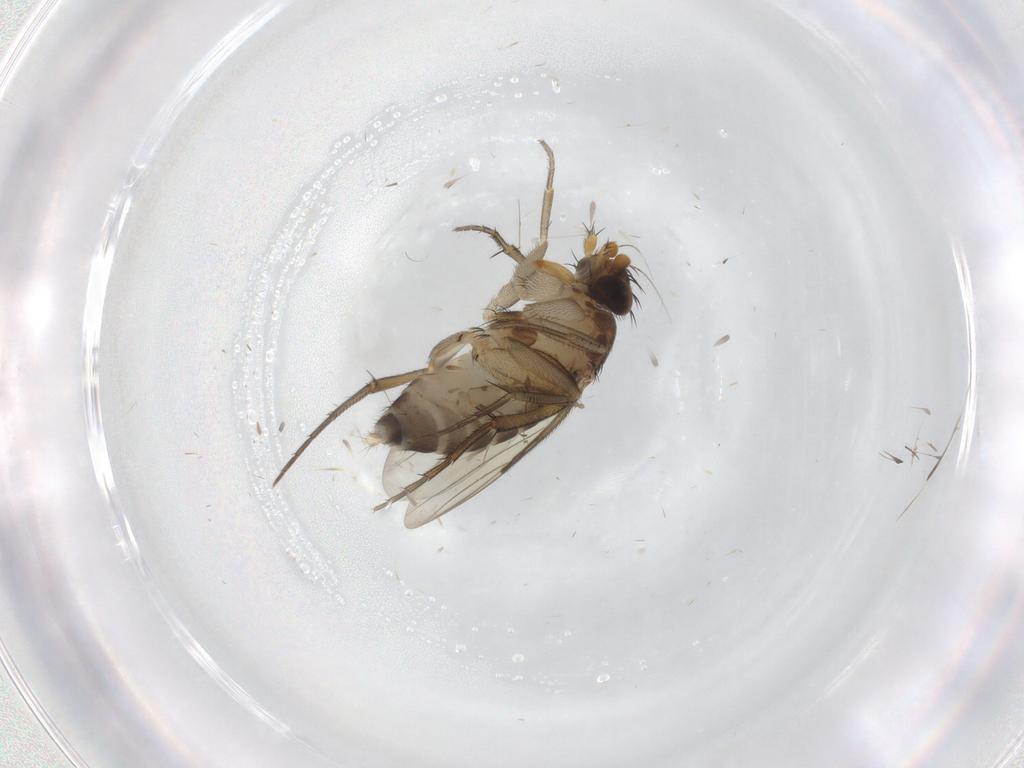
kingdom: Animalia
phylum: Arthropoda
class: Insecta
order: Diptera
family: Phoridae
